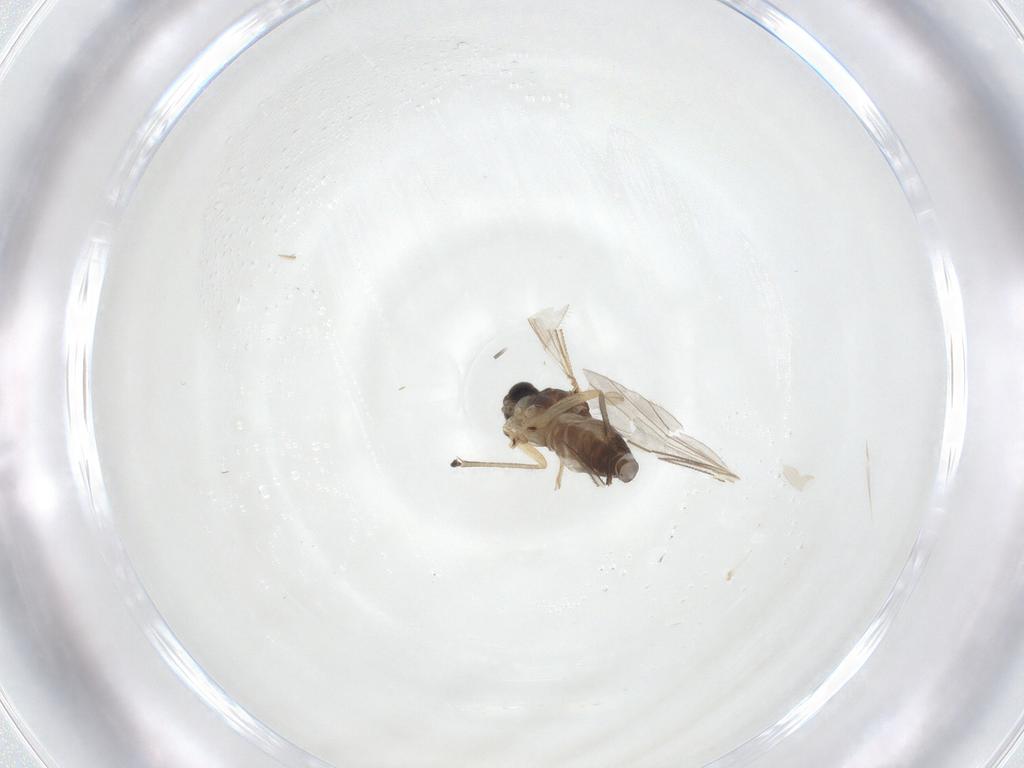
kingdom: Animalia
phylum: Arthropoda
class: Insecta
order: Diptera
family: Sciaridae
